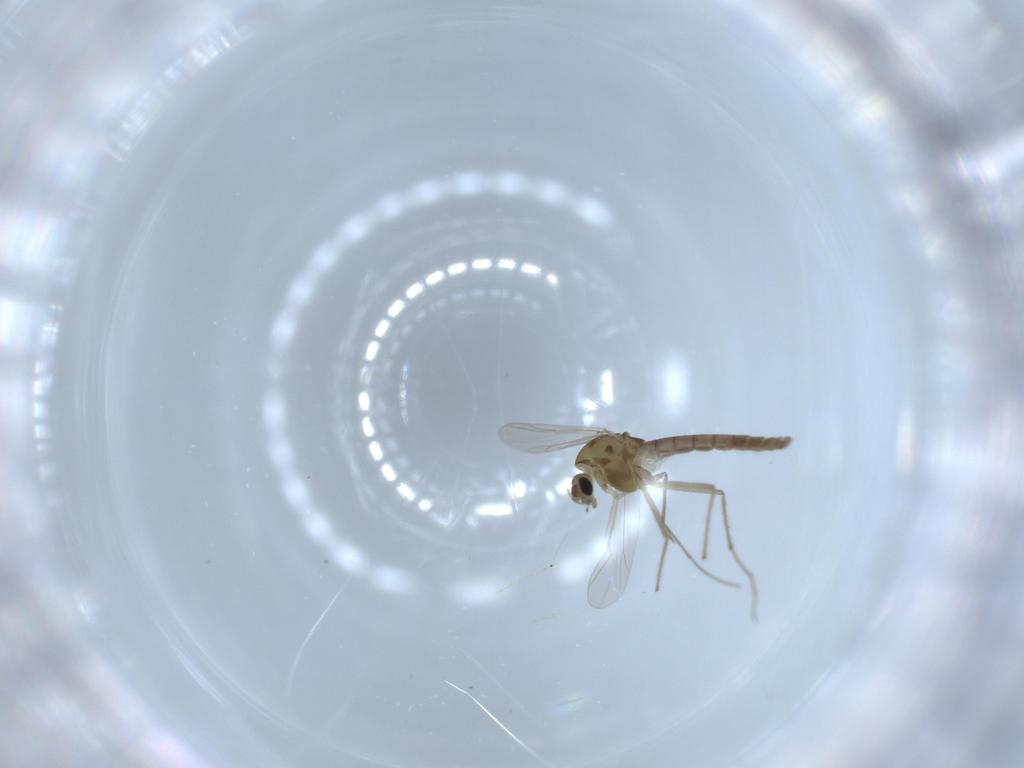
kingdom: Animalia
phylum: Arthropoda
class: Insecta
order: Diptera
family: Chironomidae
